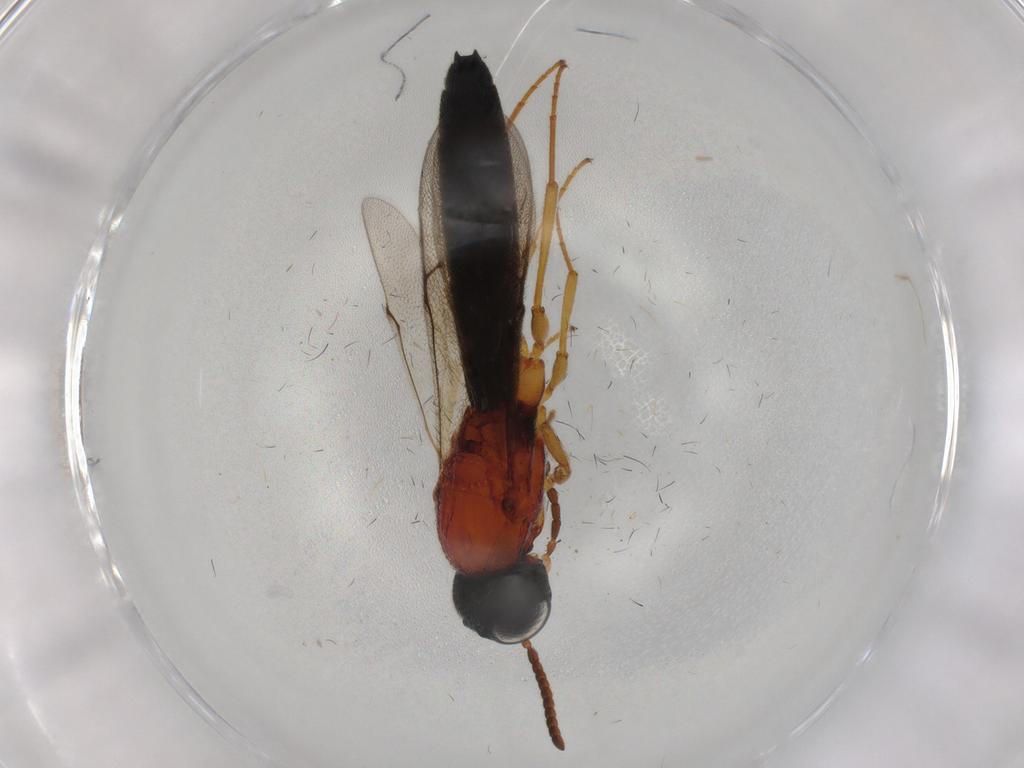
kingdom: Animalia
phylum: Arthropoda
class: Insecta
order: Hymenoptera
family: Scelionidae
